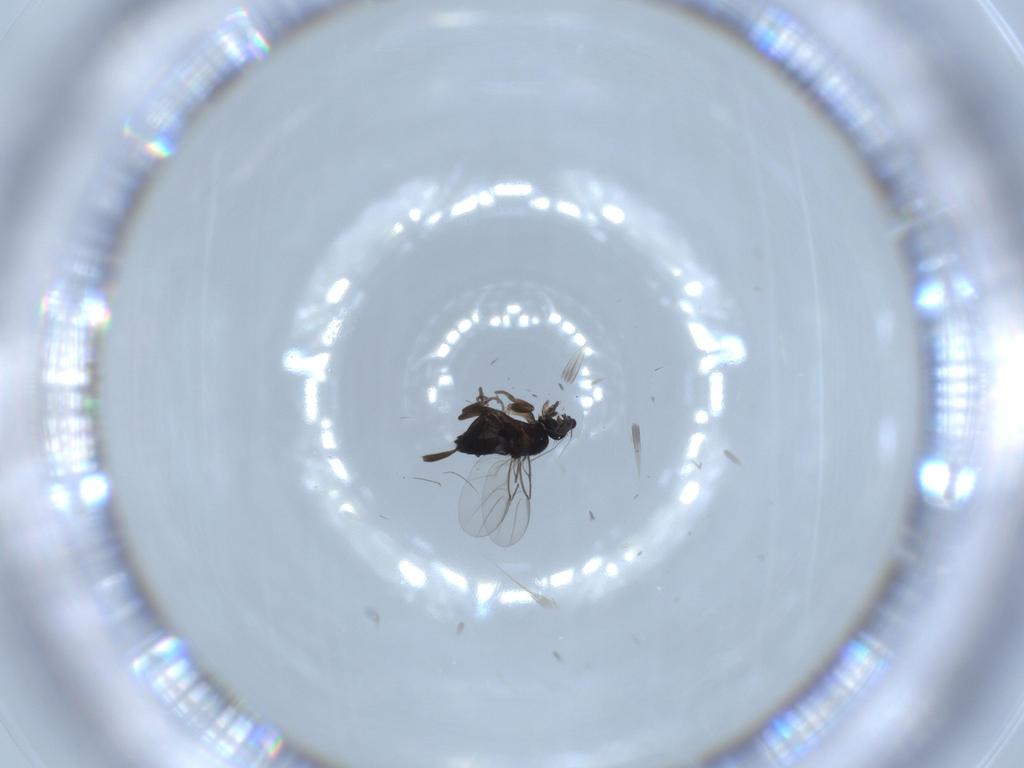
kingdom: Animalia
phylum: Arthropoda
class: Insecta
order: Diptera
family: Phoridae
